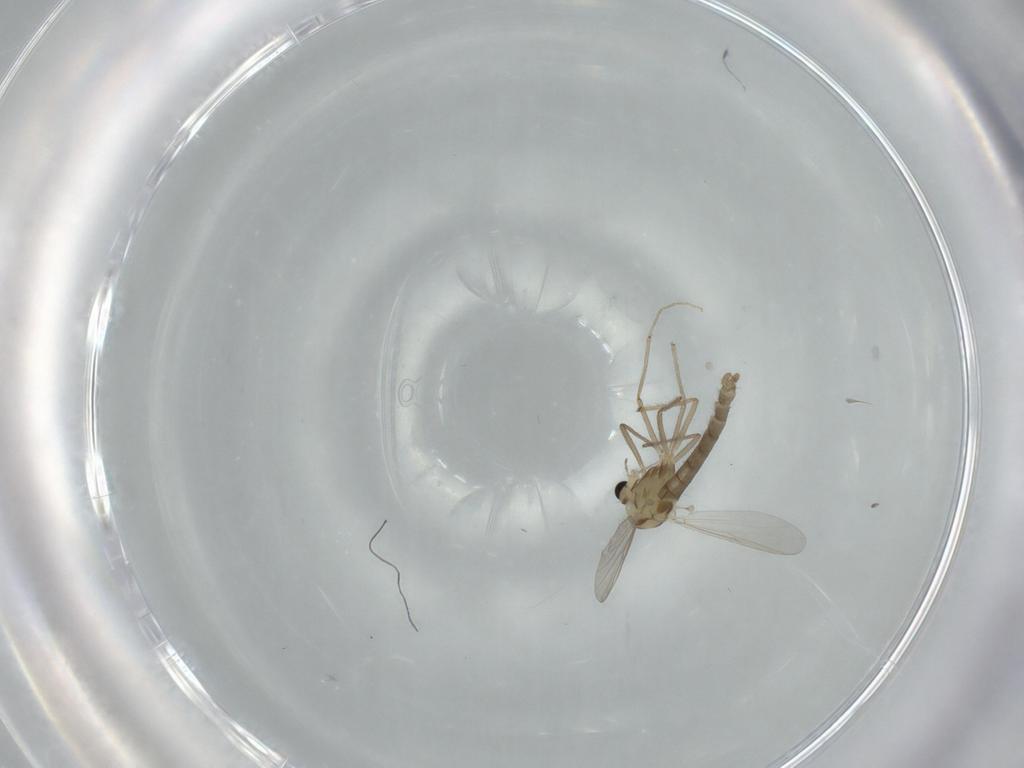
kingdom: Animalia
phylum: Arthropoda
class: Insecta
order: Diptera
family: Chironomidae
